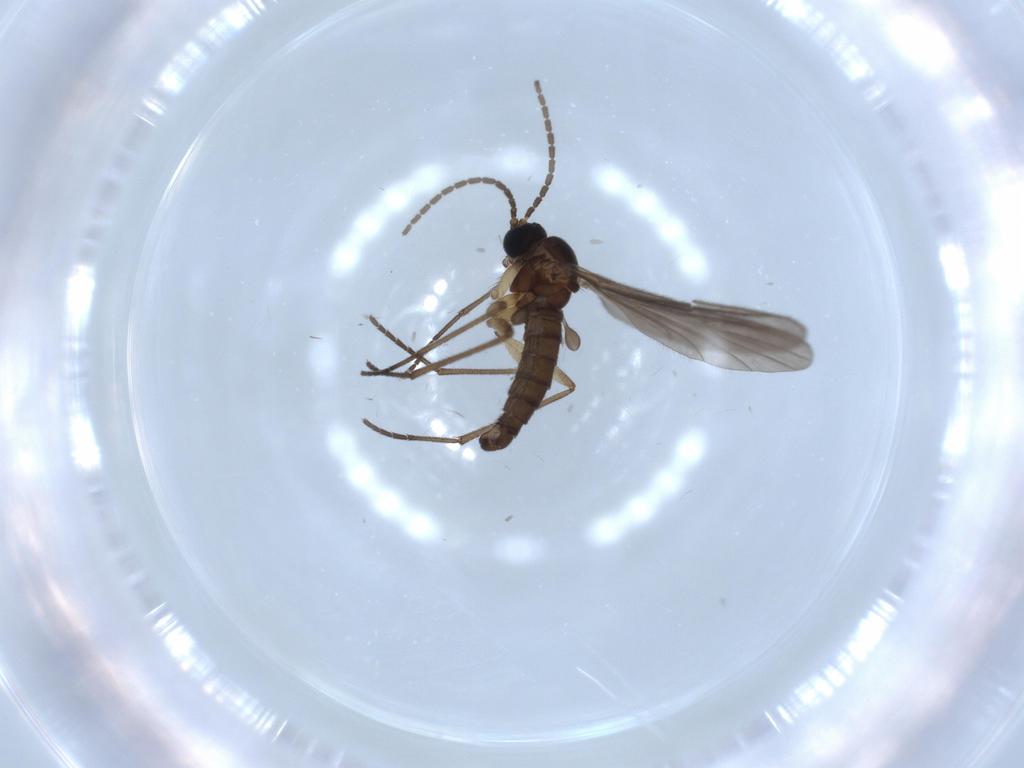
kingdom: Animalia
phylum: Arthropoda
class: Insecta
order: Diptera
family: Sciaridae
